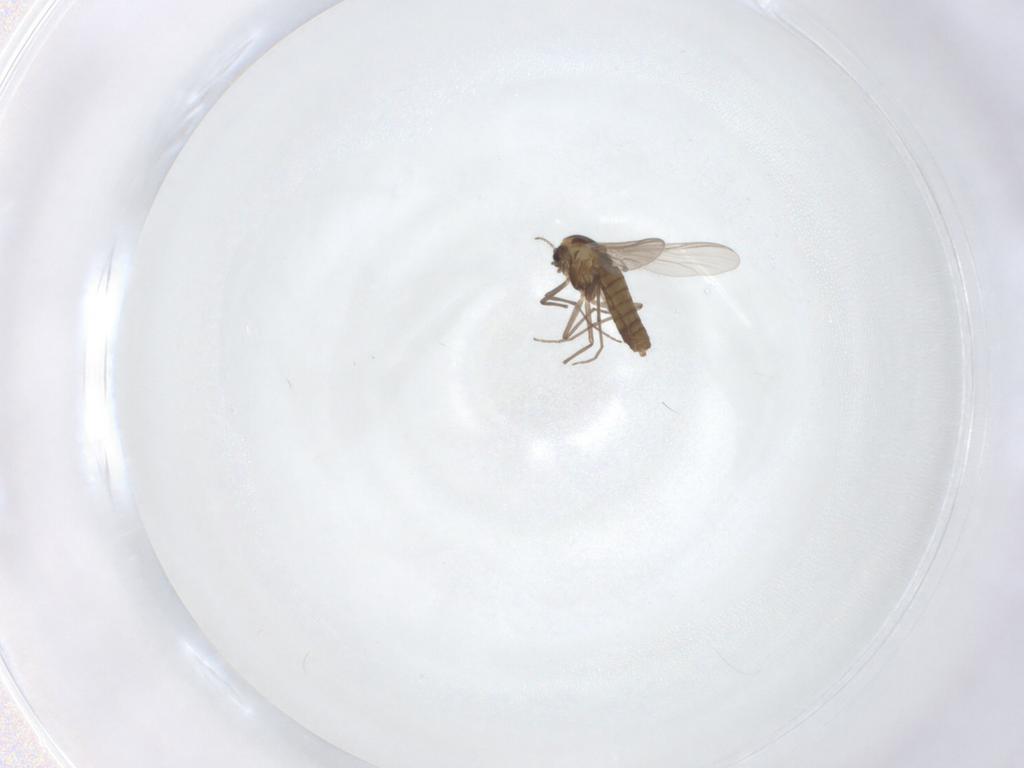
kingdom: Animalia
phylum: Arthropoda
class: Insecta
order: Diptera
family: Chironomidae
